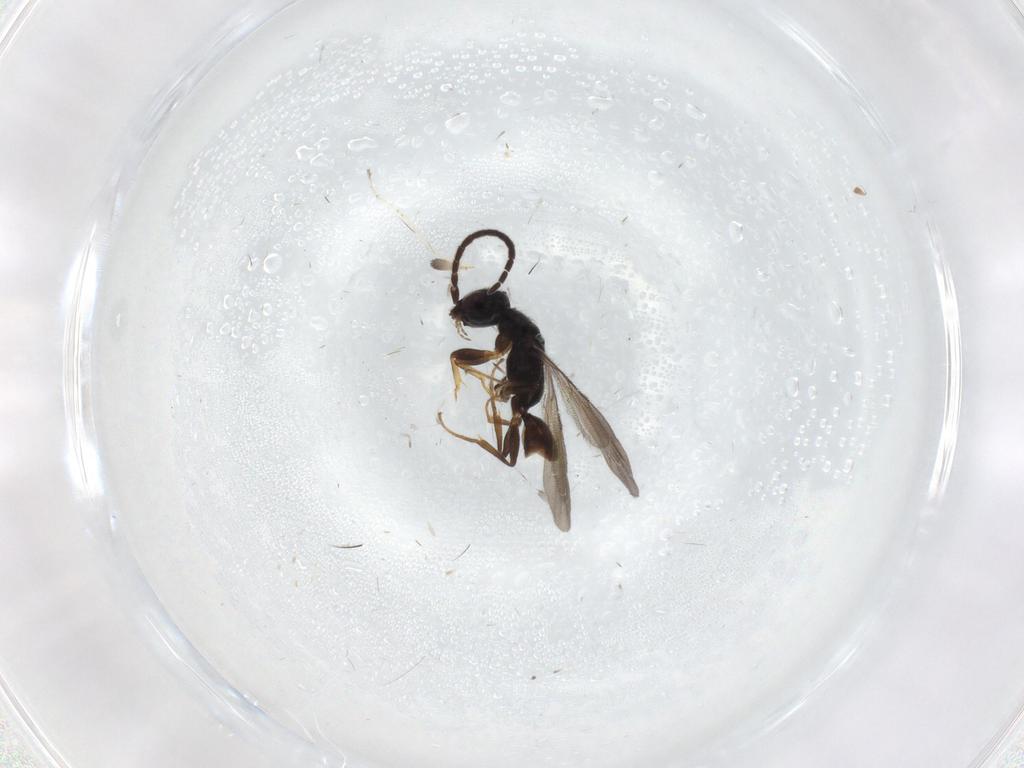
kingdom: Animalia
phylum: Arthropoda
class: Insecta
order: Hymenoptera
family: Bethylidae
